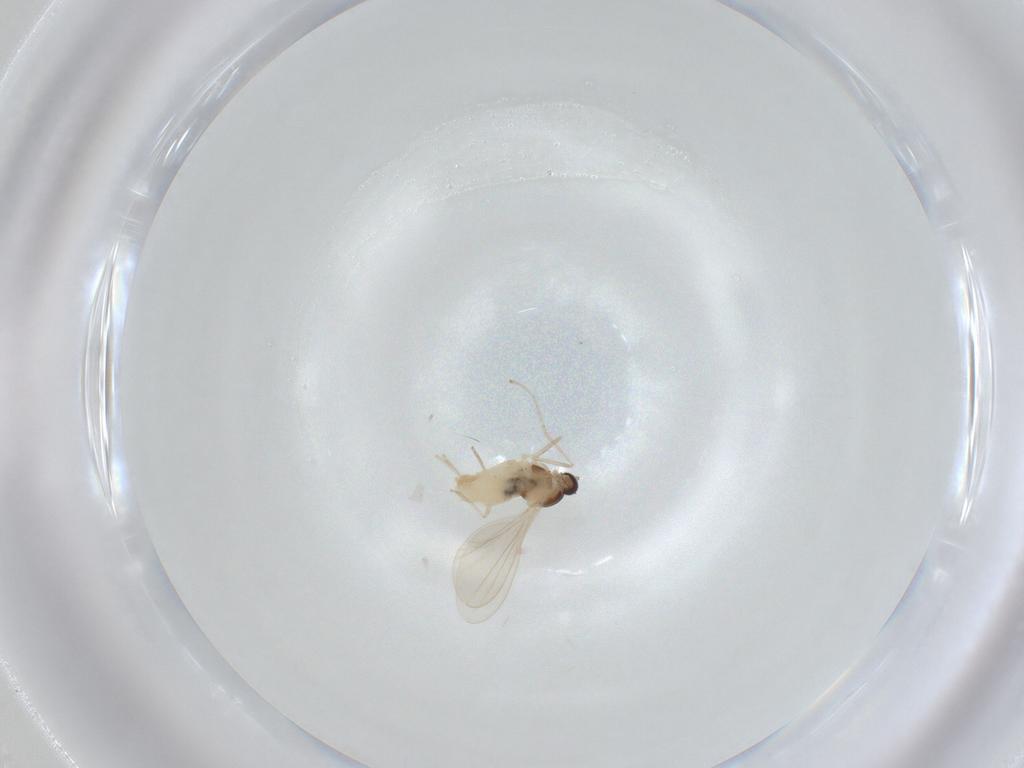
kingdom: Animalia
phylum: Arthropoda
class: Insecta
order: Diptera
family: Cecidomyiidae
